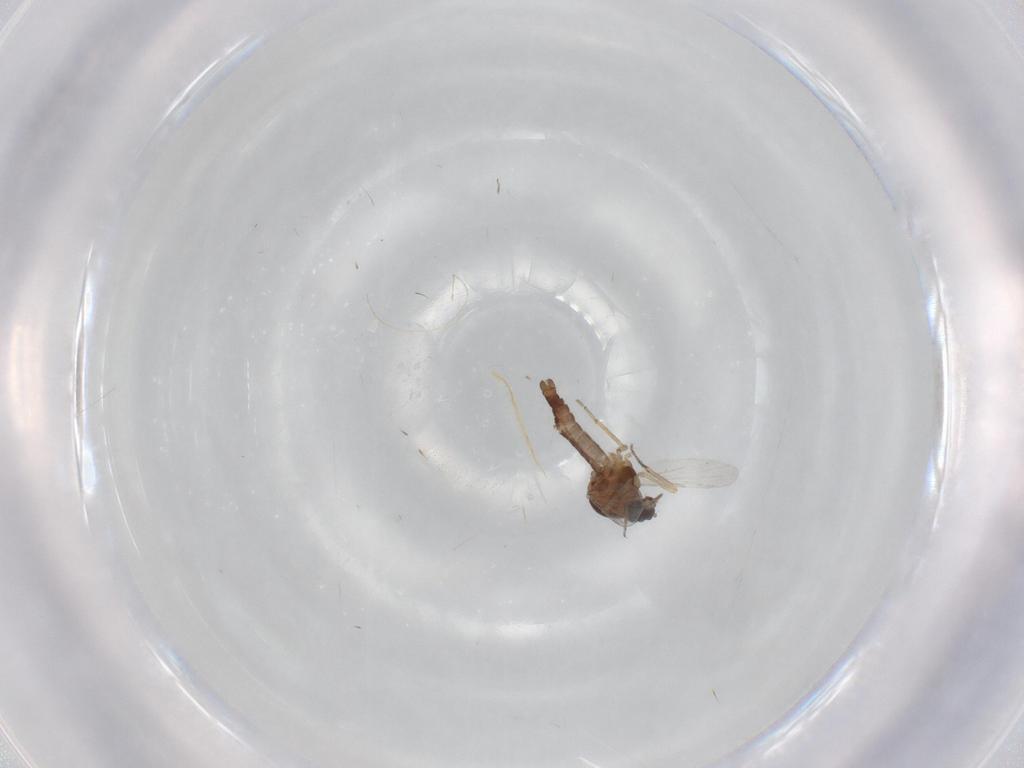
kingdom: Animalia
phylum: Arthropoda
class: Insecta
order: Diptera
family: Ceratopogonidae
